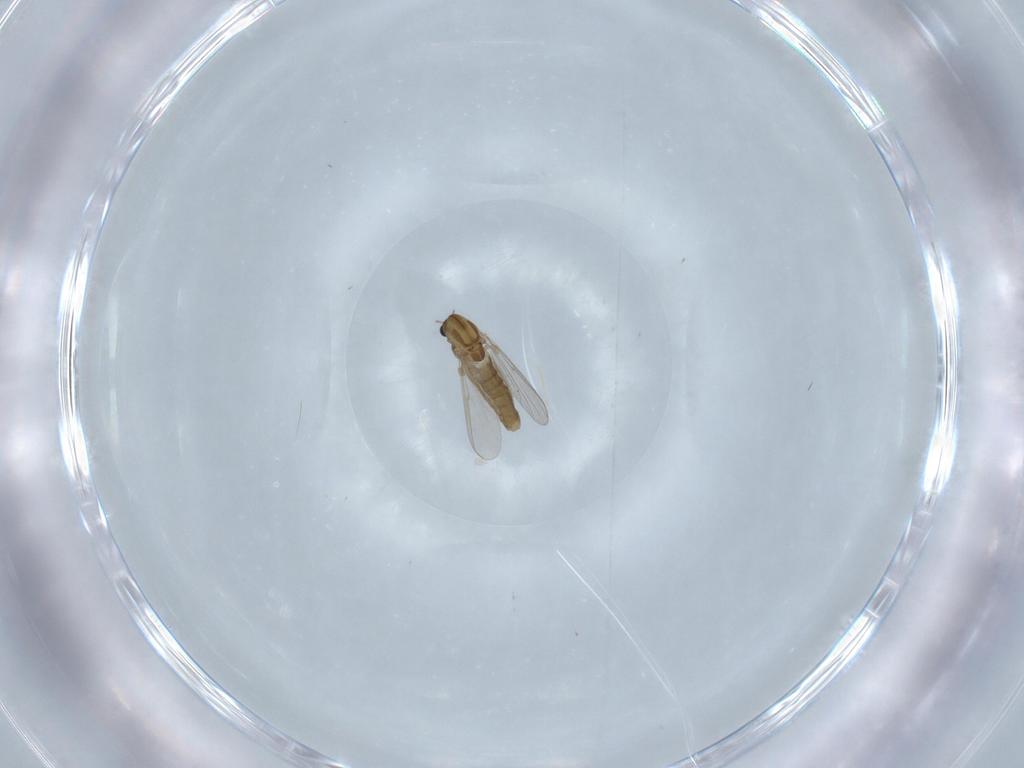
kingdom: Animalia
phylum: Arthropoda
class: Insecta
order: Diptera
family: Chironomidae
